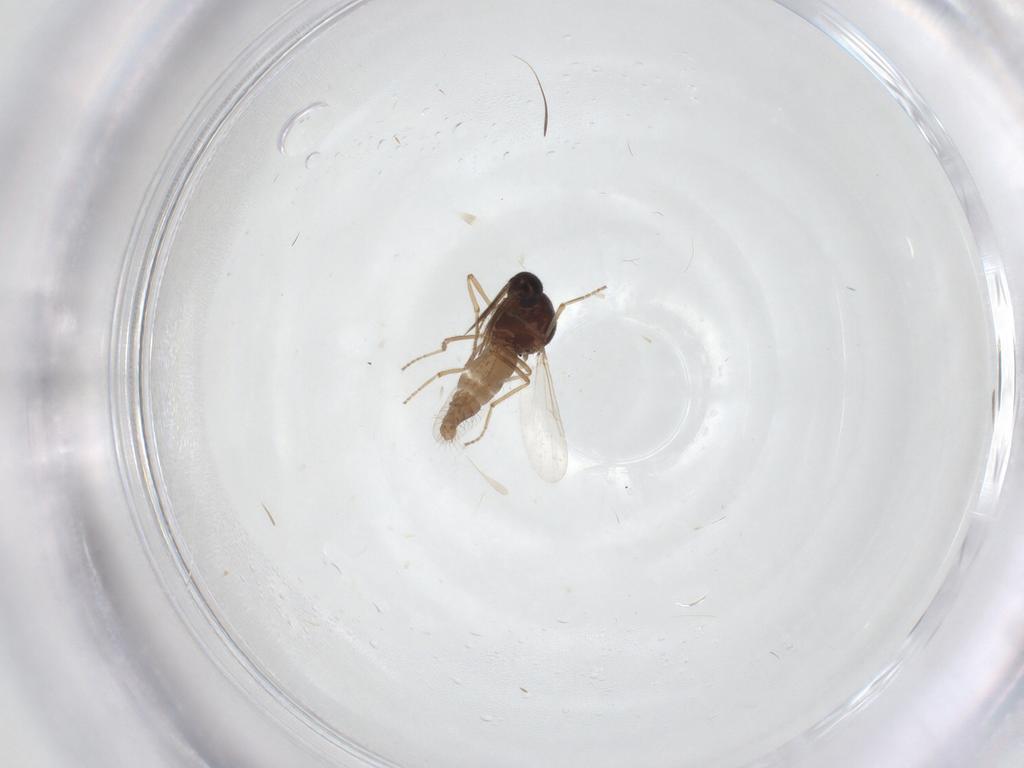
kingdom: Animalia
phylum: Arthropoda
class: Insecta
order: Diptera
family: Ceratopogonidae
